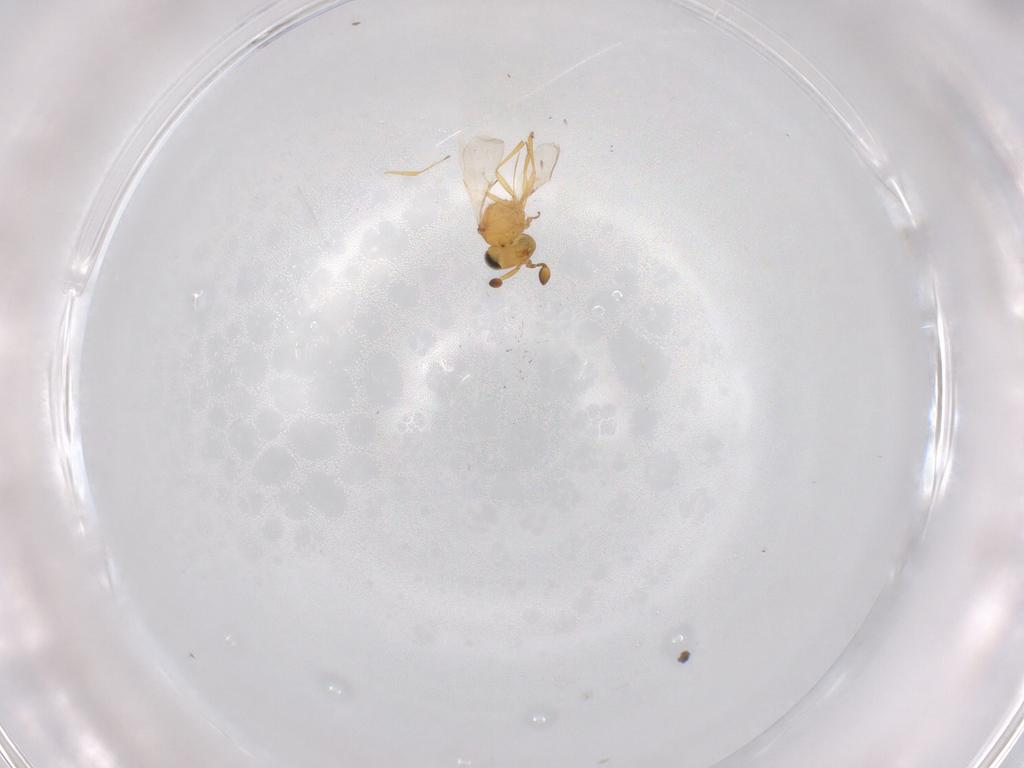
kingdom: Animalia
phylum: Arthropoda
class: Insecta
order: Hymenoptera
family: Scelionidae
